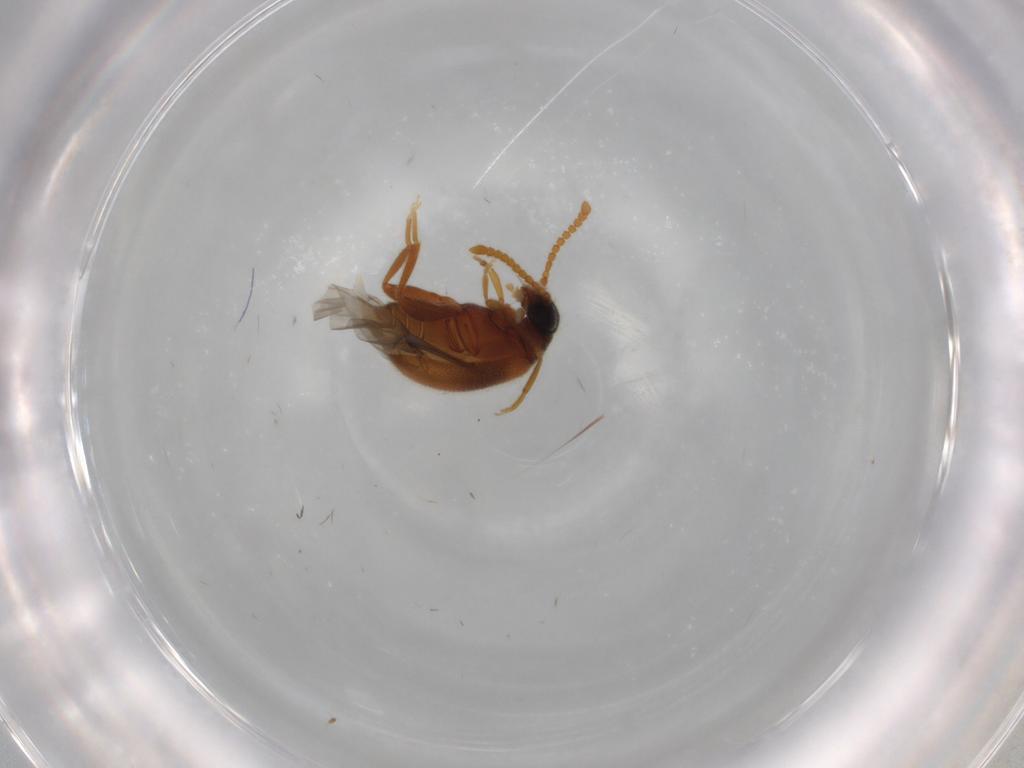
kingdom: Animalia
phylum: Arthropoda
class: Insecta
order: Coleoptera
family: Aderidae
